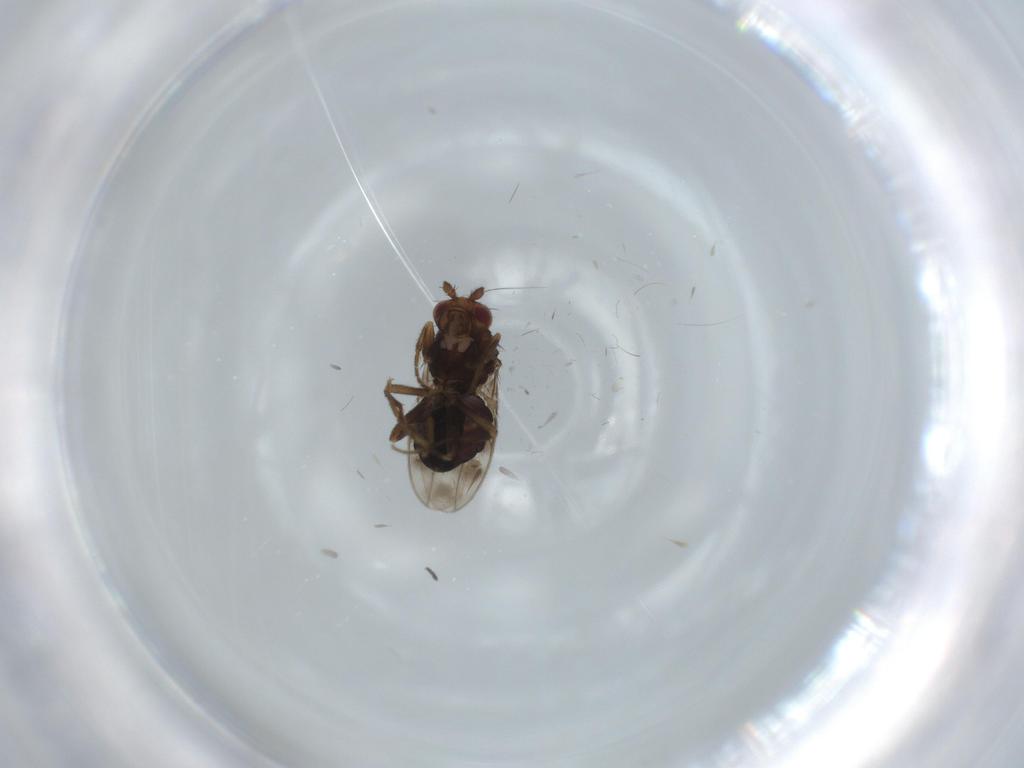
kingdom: Animalia
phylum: Arthropoda
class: Insecta
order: Diptera
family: Sphaeroceridae
